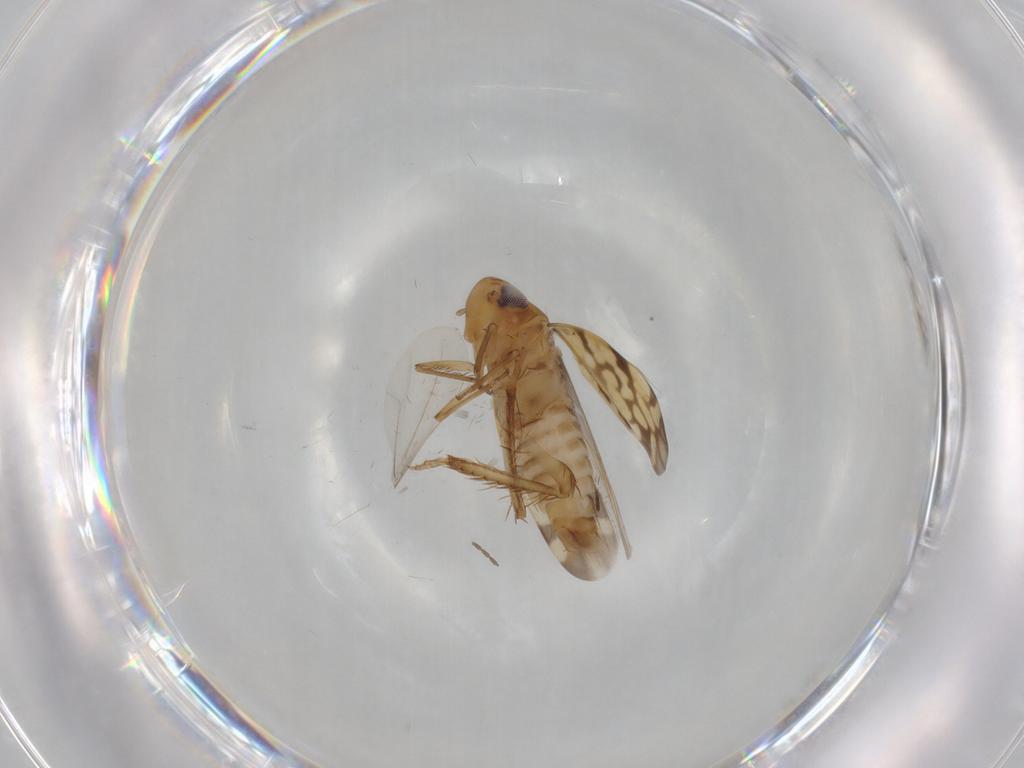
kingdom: Animalia
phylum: Arthropoda
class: Insecta
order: Hemiptera
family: Cicadellidae
